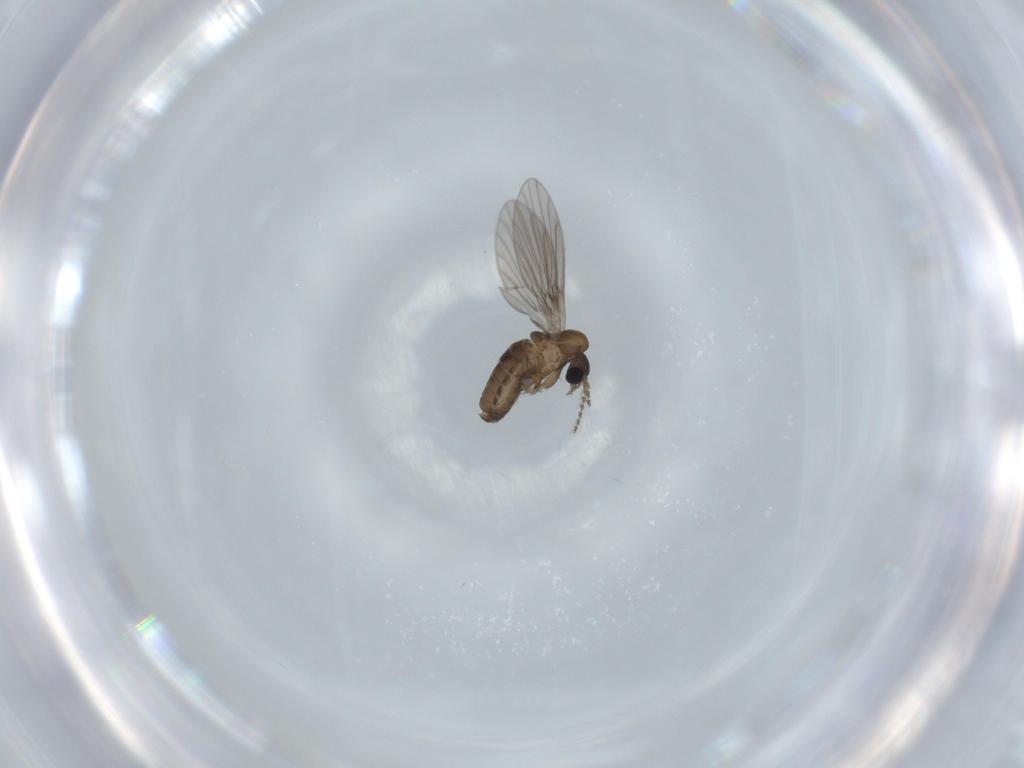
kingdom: Animalia
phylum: Arthropoda
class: Insecta
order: Diptera
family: Psychodidae
